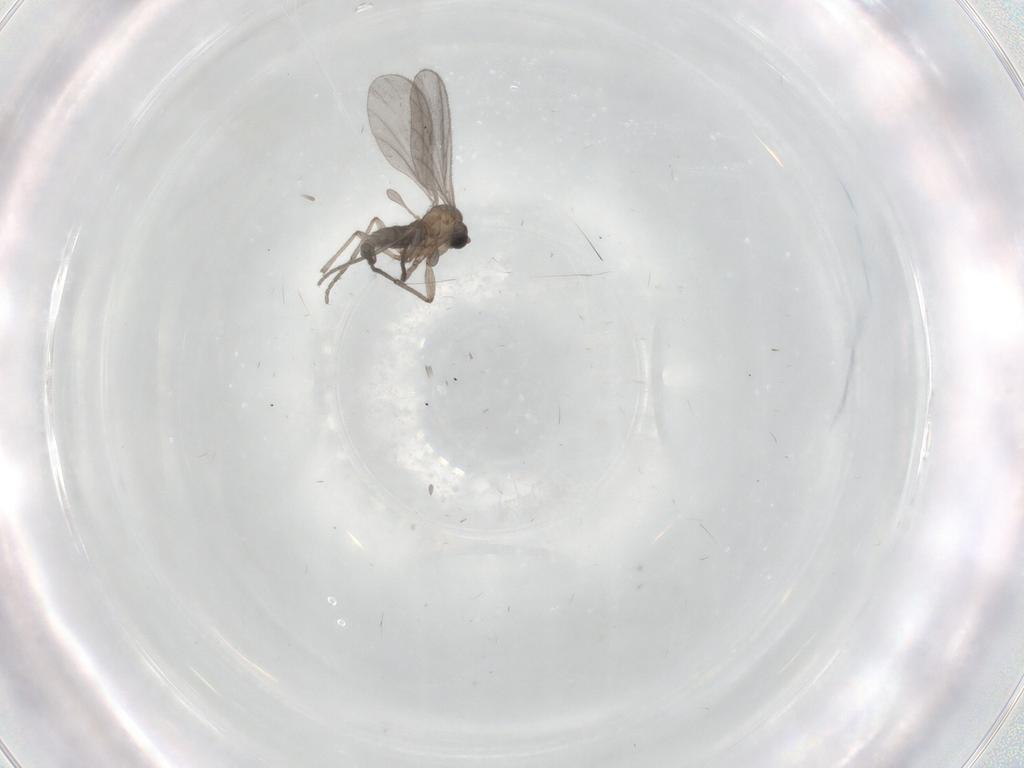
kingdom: Animalia
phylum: Arthropoda
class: Insecta
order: Diptera
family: Sciaridae
